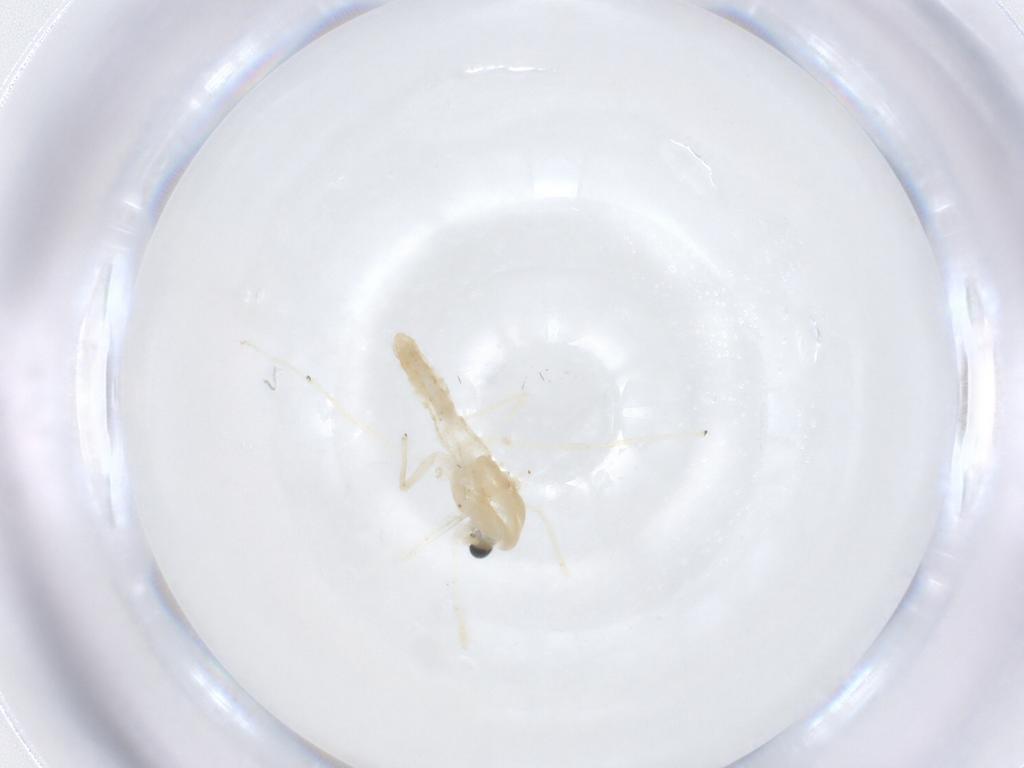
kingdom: Animalia
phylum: Arthropoda
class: Insecta
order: Diptera
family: Chironomidae
